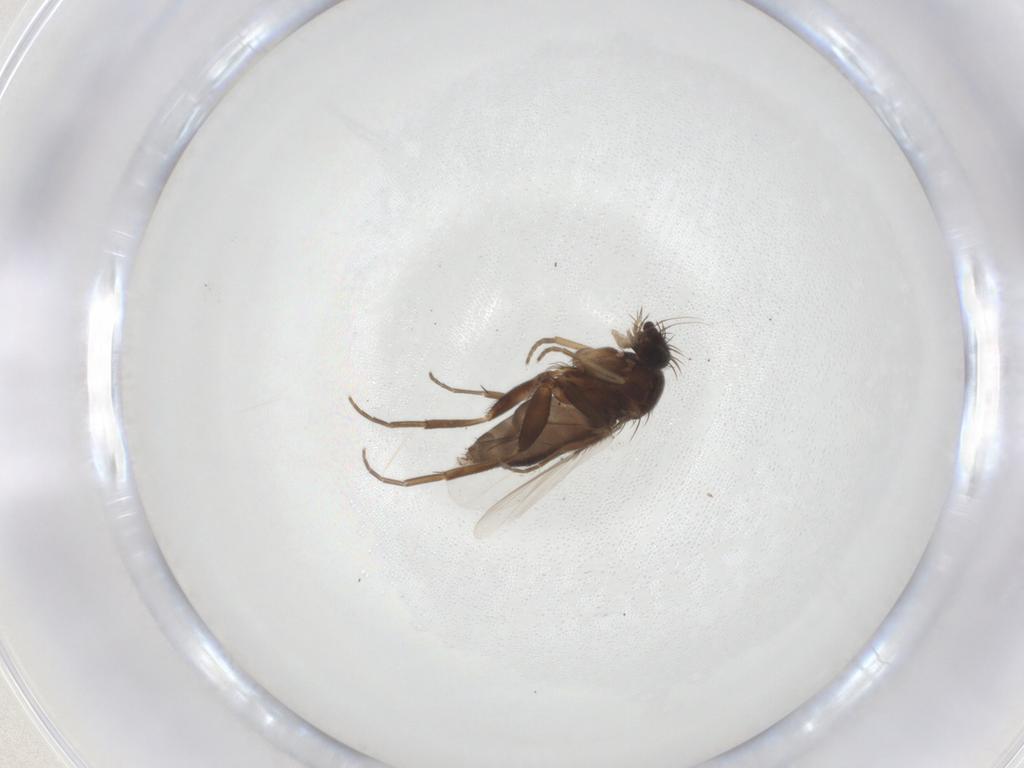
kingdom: Animalia
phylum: Arthropoda
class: Insecta
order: Diptera
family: Phoridae
